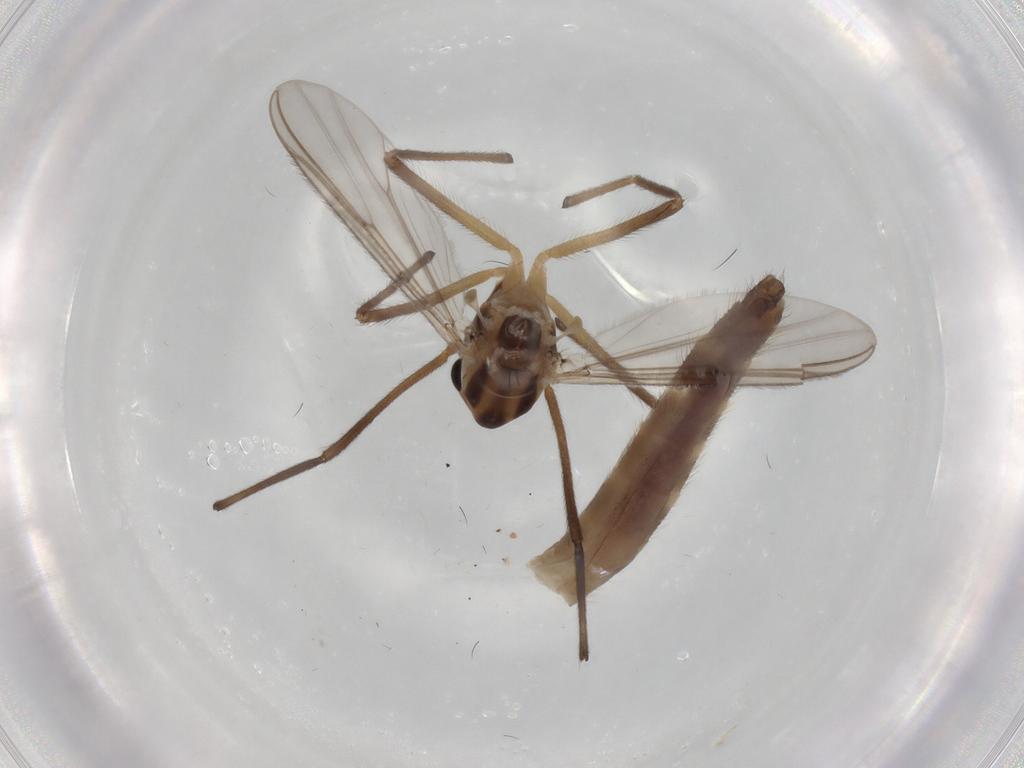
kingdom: Animalia
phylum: Arthropoda
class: Insecta
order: Diptera
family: Chironomidae
